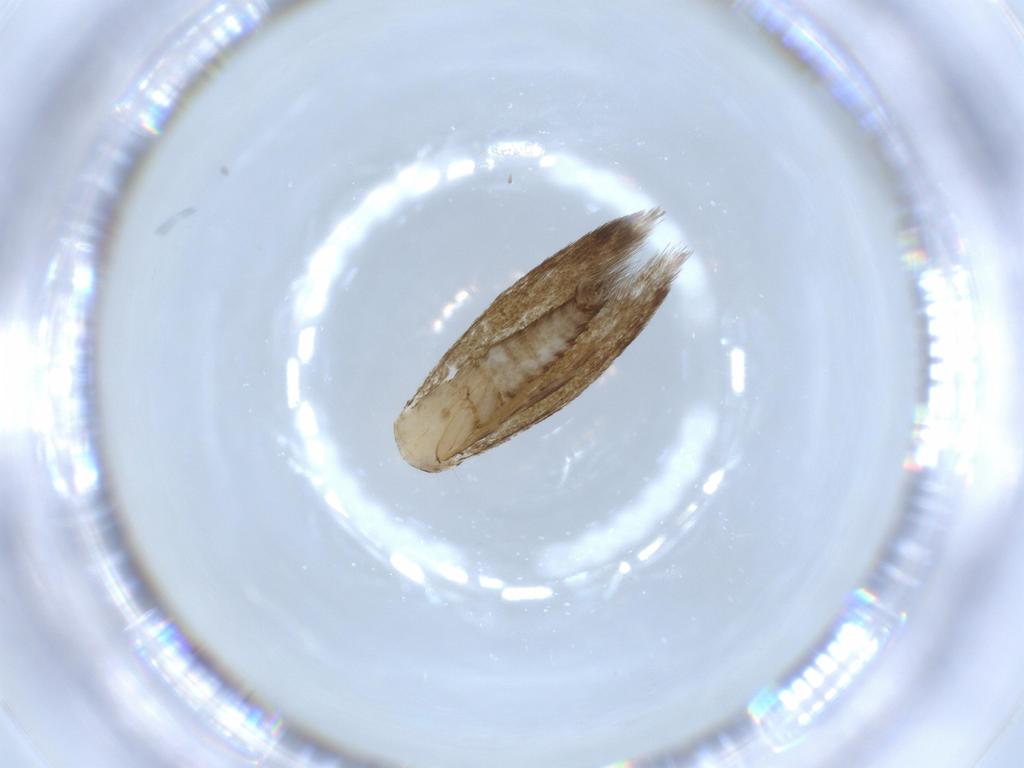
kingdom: Animalia
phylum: Arthropoda
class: Insecta
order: Lepidoptera
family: Tineidae
